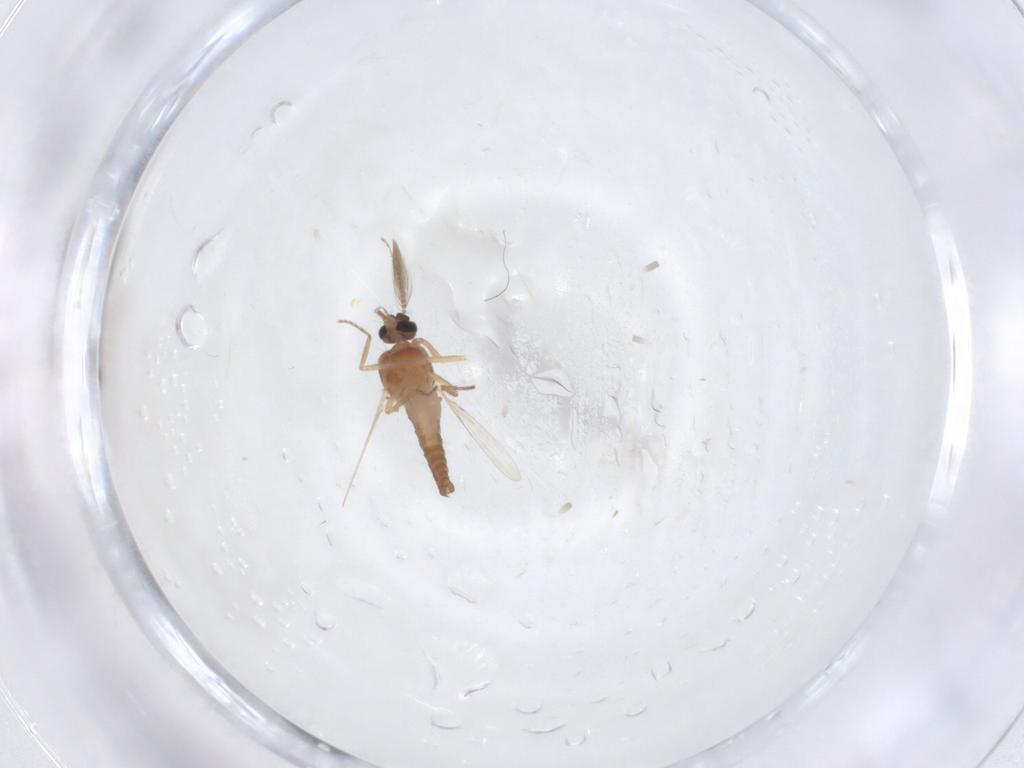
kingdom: Animalia
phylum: Arthropoda
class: Insecta
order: Diptera
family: Ceratopogonidae
